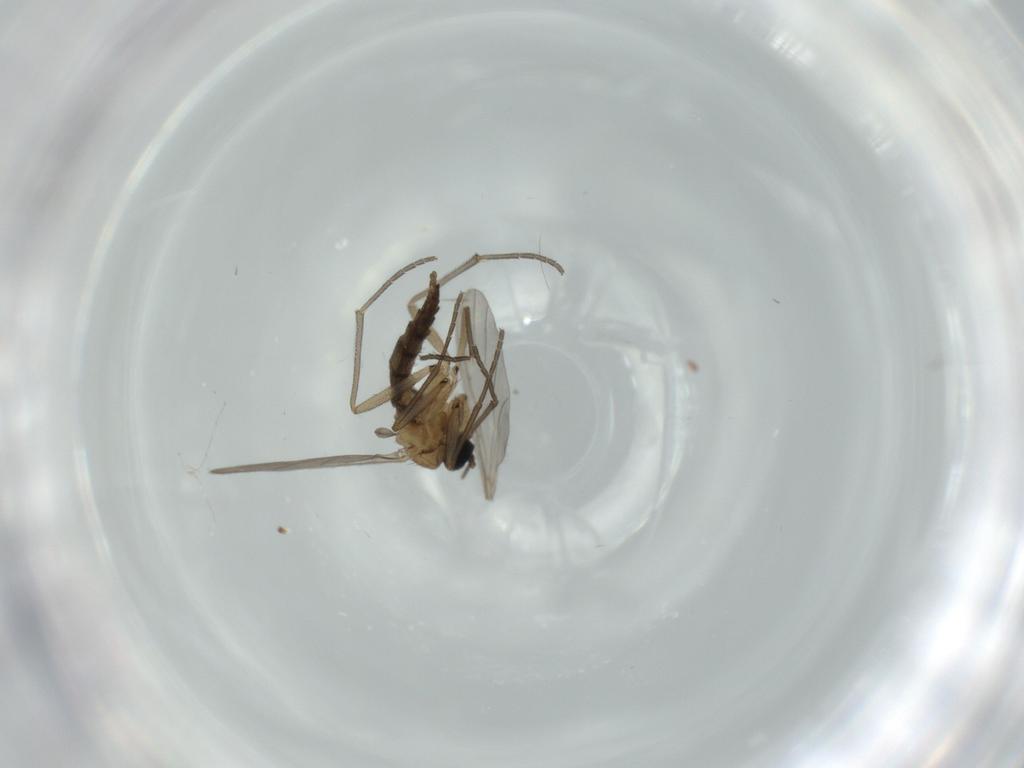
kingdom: Animalia
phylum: Arthropoda
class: Insecta
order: Diptera
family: Sciaridae
